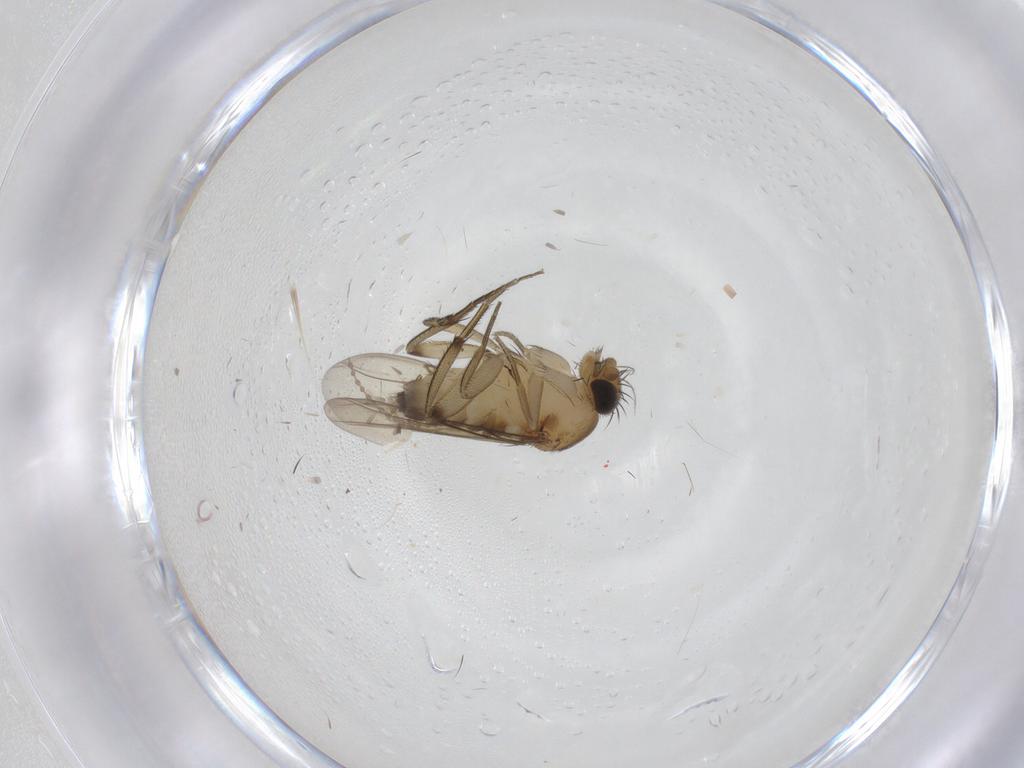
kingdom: Animalia
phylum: Arthropoda
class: Insecta
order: Diptera
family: Phoridae
